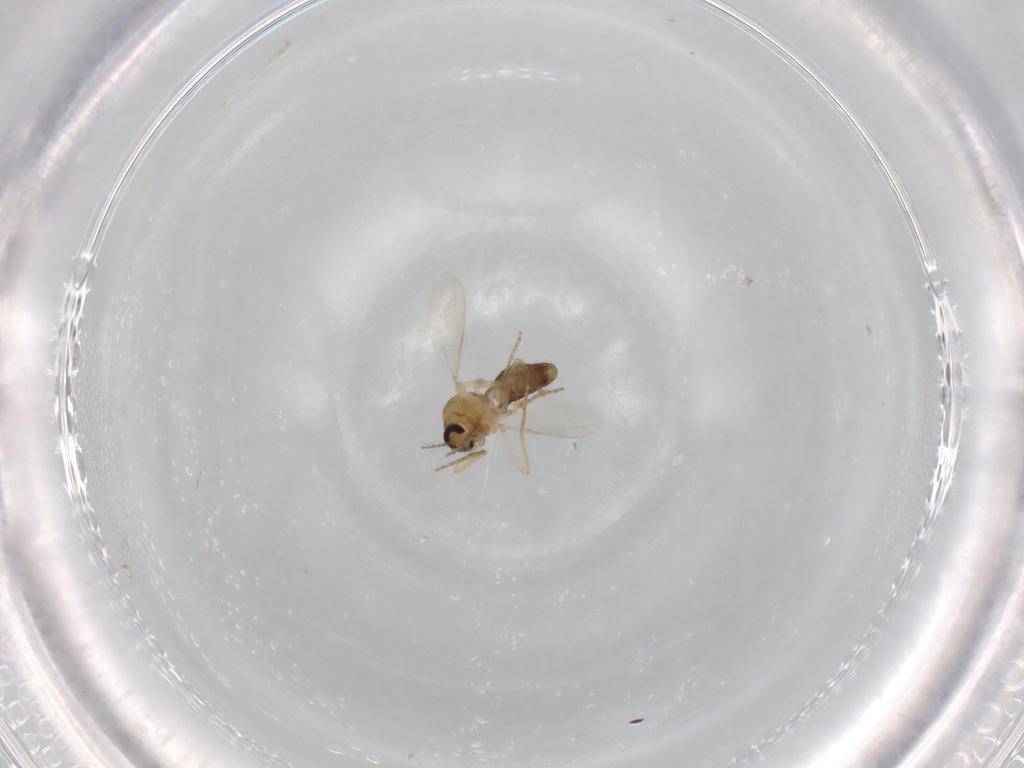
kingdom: Animalia
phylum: Arthropoda
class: Insecta
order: Diptera
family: Ceratopogonidae
